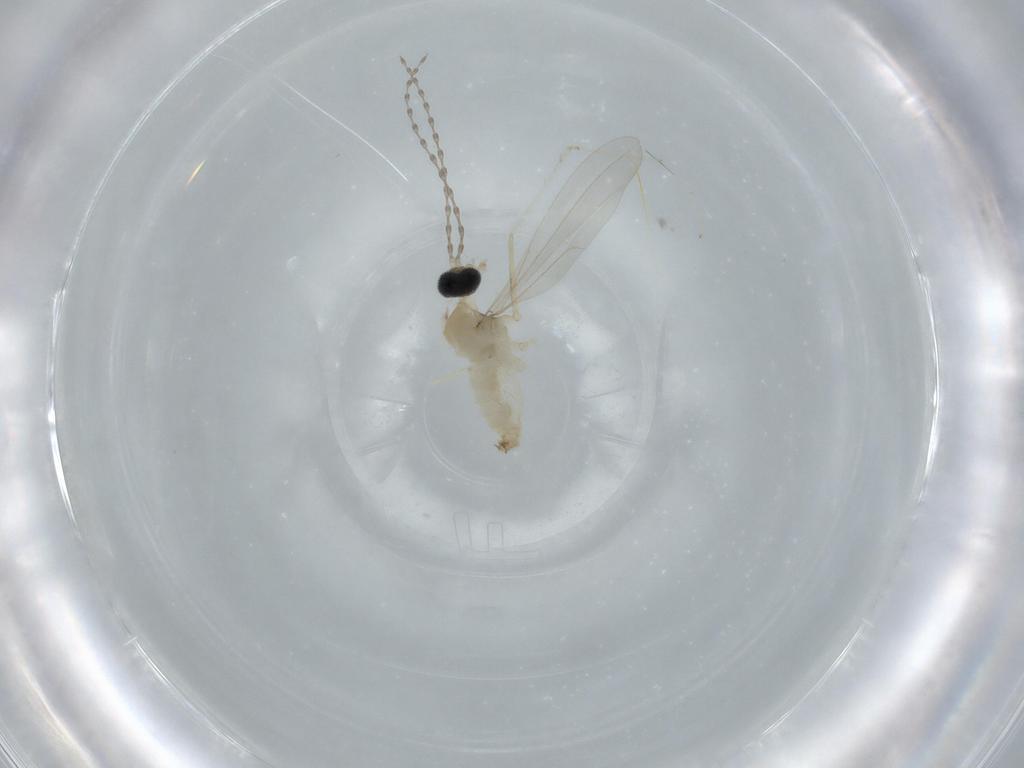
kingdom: Animalia
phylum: Arthropoda
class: Insecta
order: Diptera
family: Cecidomyiidae
